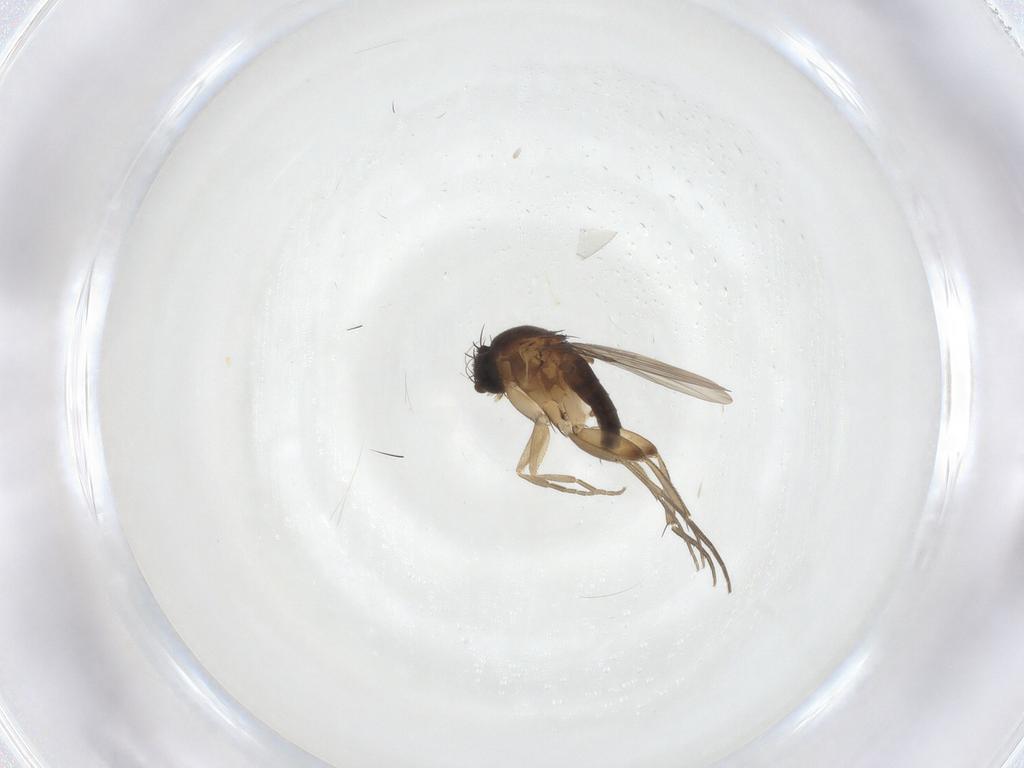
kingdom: Animalia
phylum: Arthropoda
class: Insecta
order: Diptera
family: Phoridae
